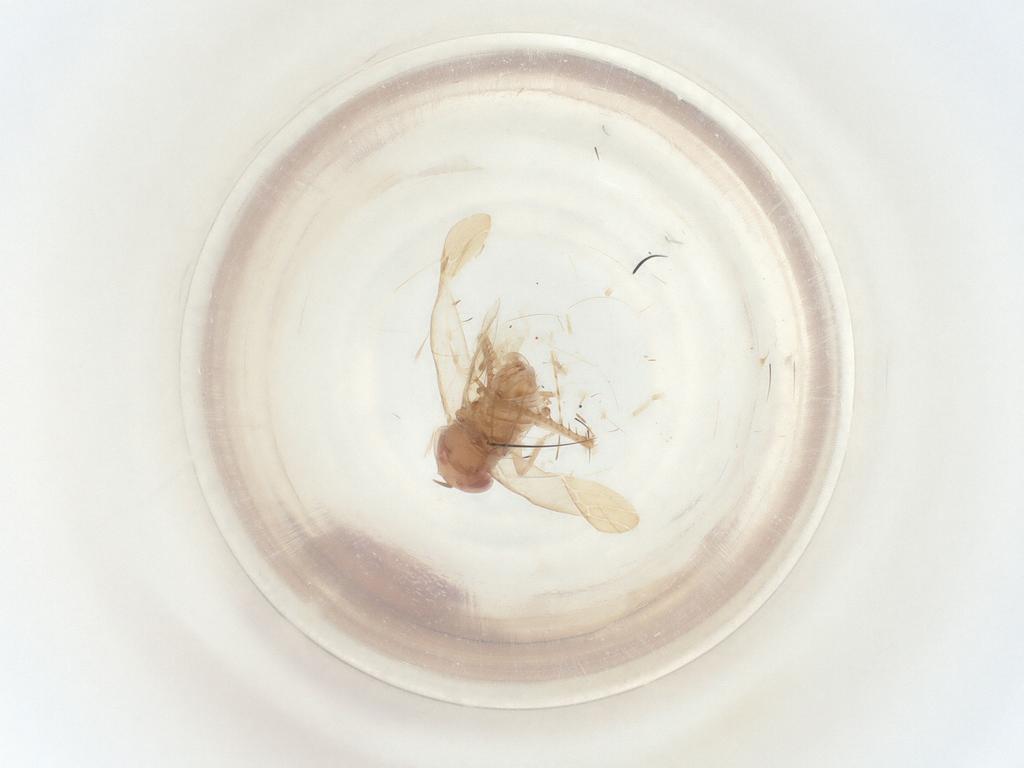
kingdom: Animalia
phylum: Arthropoda
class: Insecta
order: Hemiptera
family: Cicadellidae
